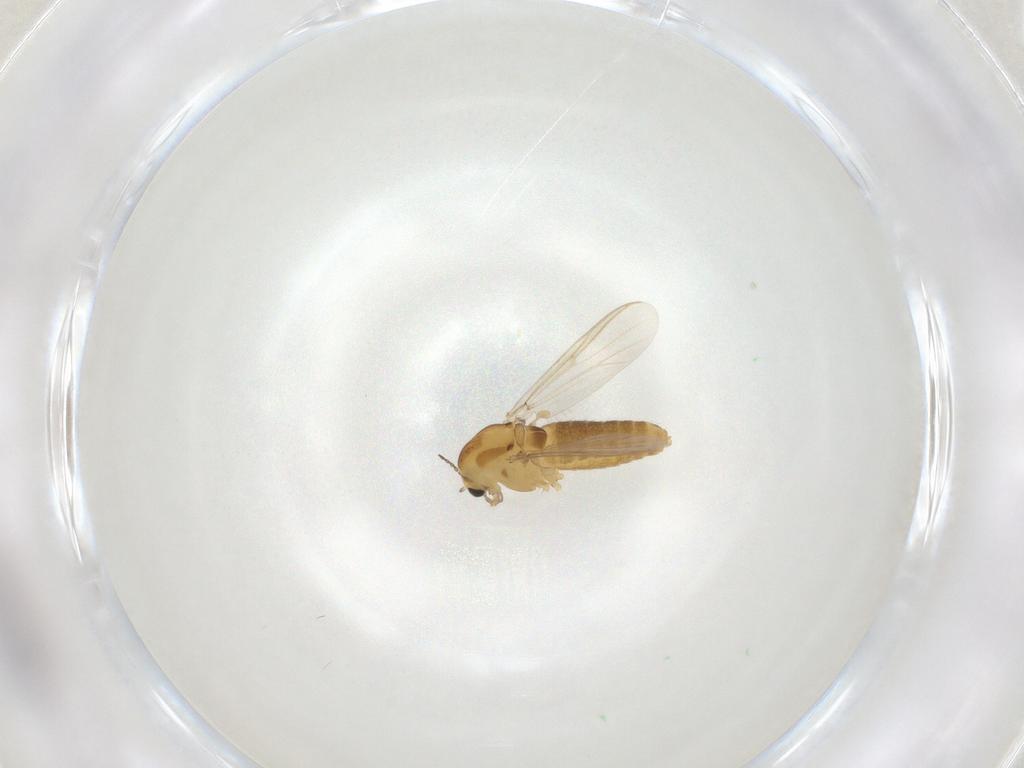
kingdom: Animalia
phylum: Arthropoda
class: Insecta
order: Diptera
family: Chironomidae
